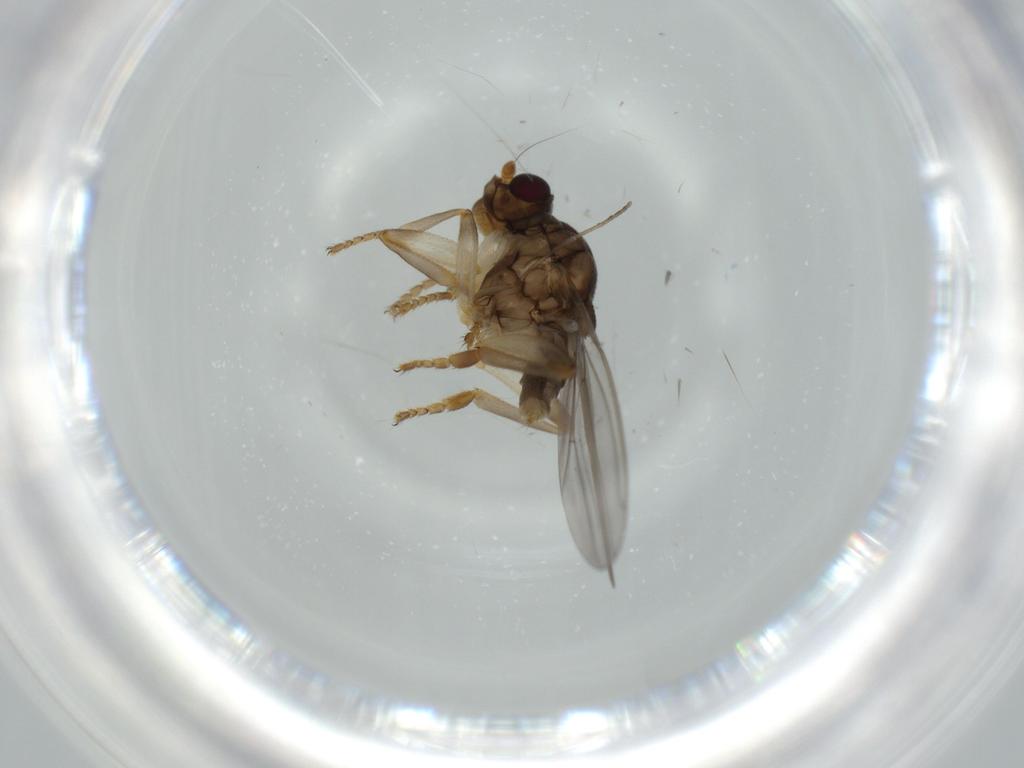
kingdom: Animalia
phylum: Arthropoda
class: Insecta
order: Diptera
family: Sphaeroceridae
